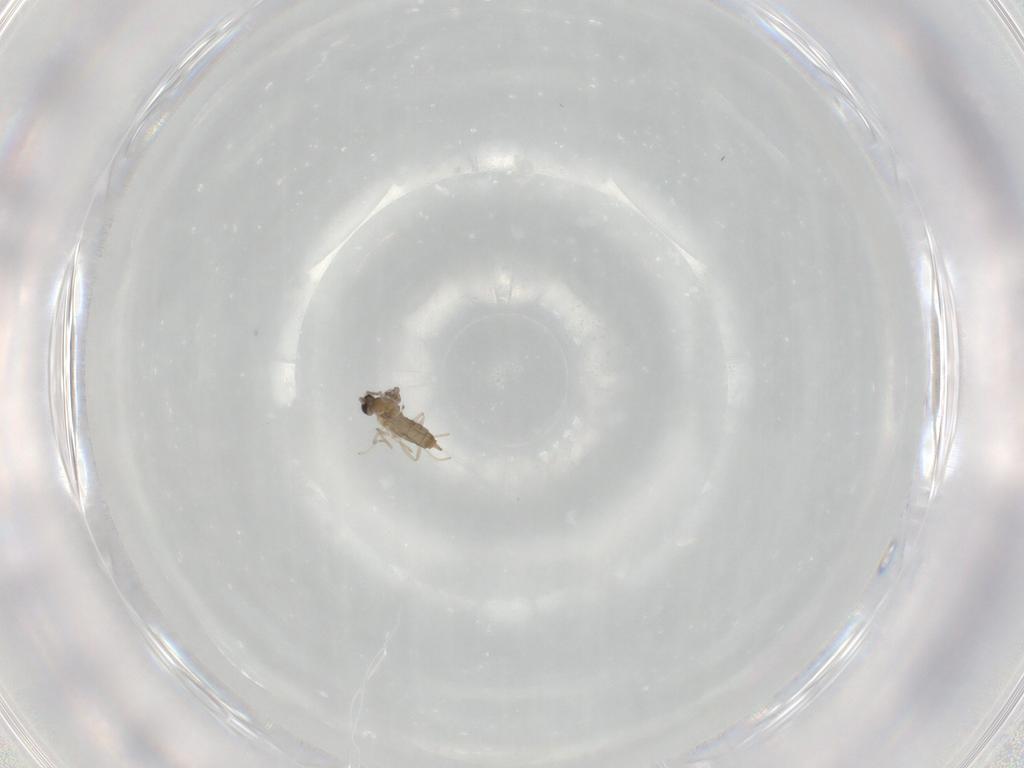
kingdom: Animalia
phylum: Arthropoda
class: Insecta
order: Diptera
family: Cecidomyiidae
